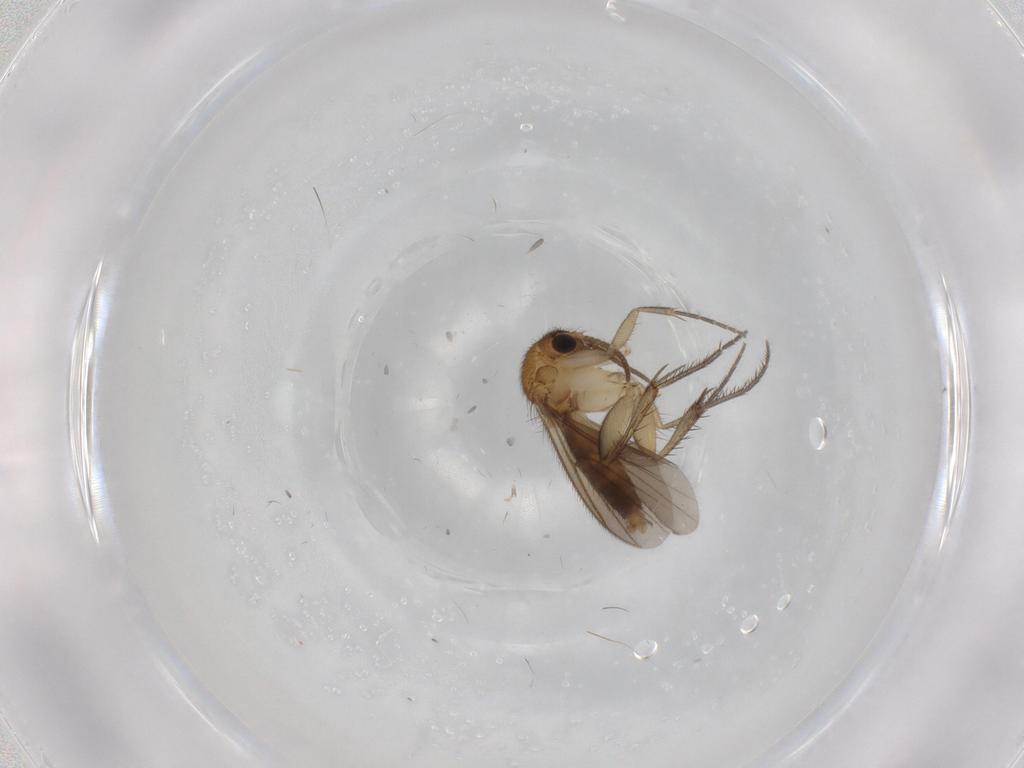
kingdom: Animalia
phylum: Arthropoda
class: Insecta
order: Diptera
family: Mycetophilidae
